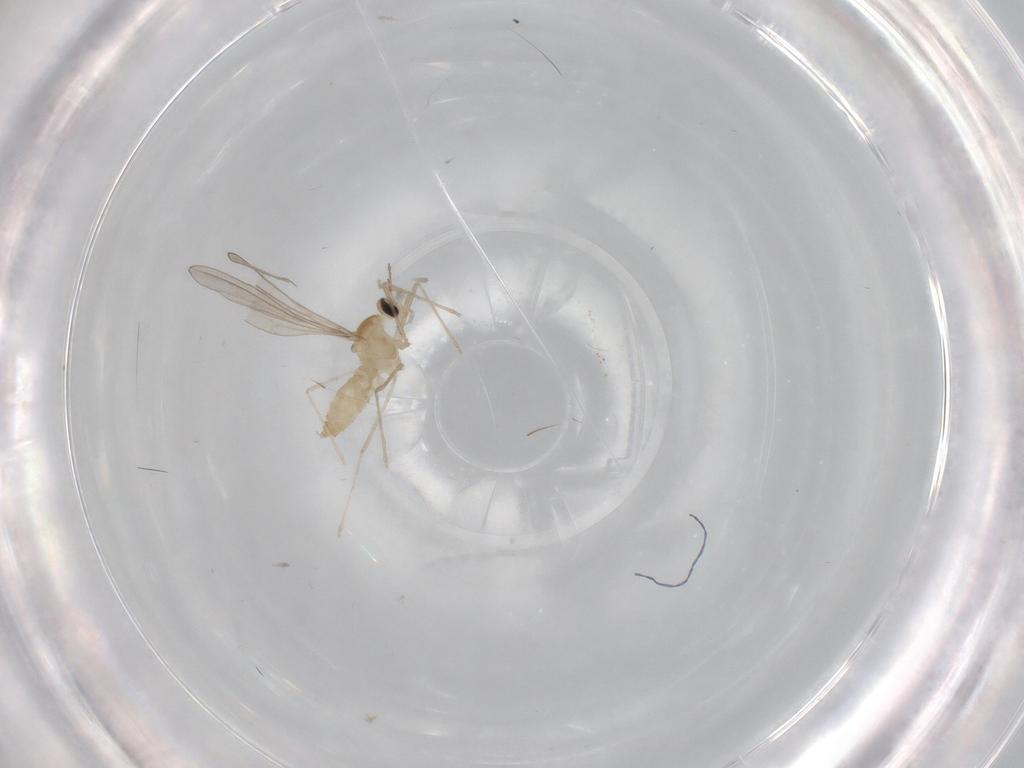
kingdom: Animalia
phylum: Arthropoda
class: Insecta
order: Diptera
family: Cecidomyiidae
